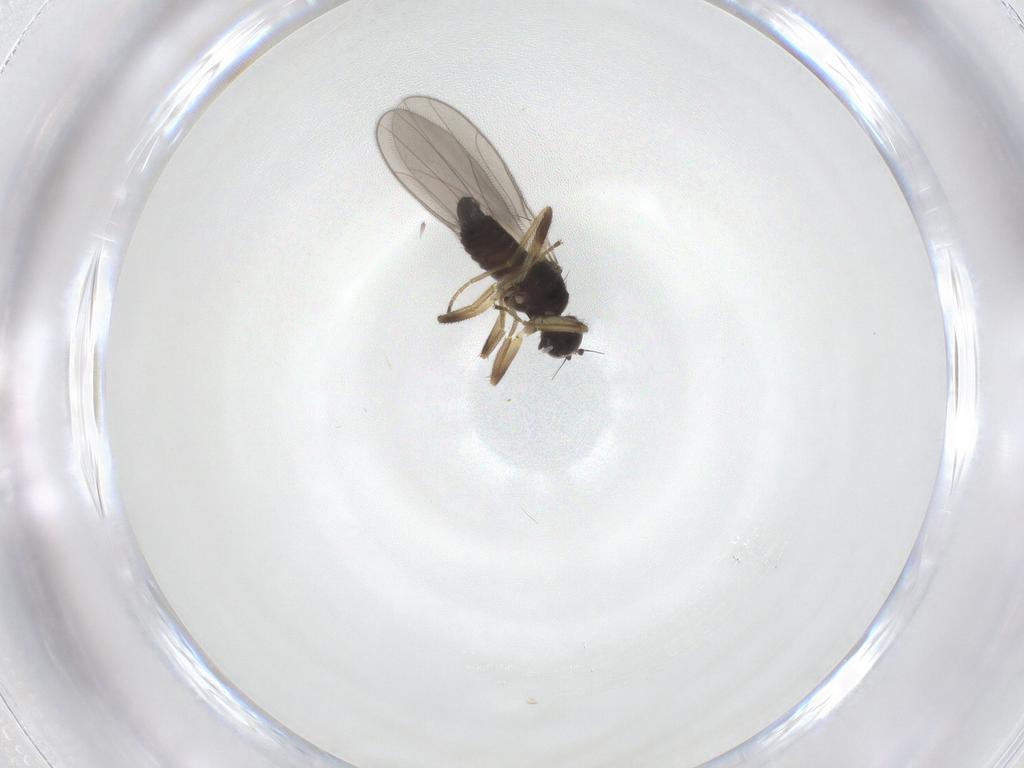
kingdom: Animalia
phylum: Arthropoda
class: Insecta
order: Diptera
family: Hybotidae
